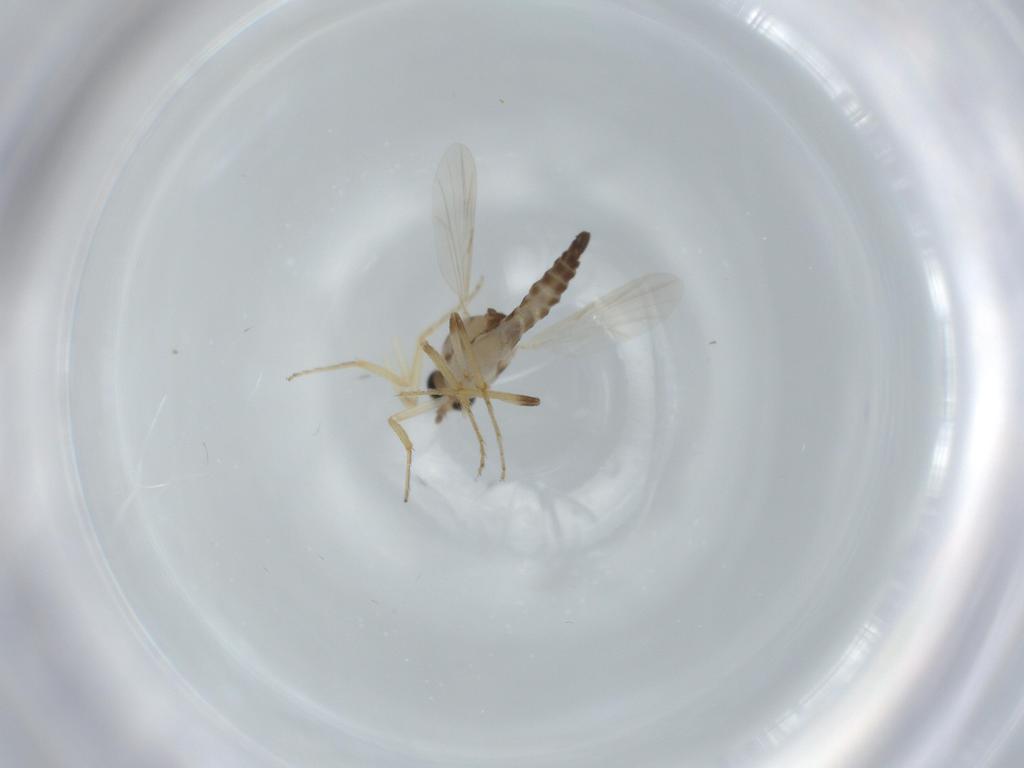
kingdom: Animalia
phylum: Arthropoda
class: Insecta
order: Diptera
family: Ceratopogonidae
